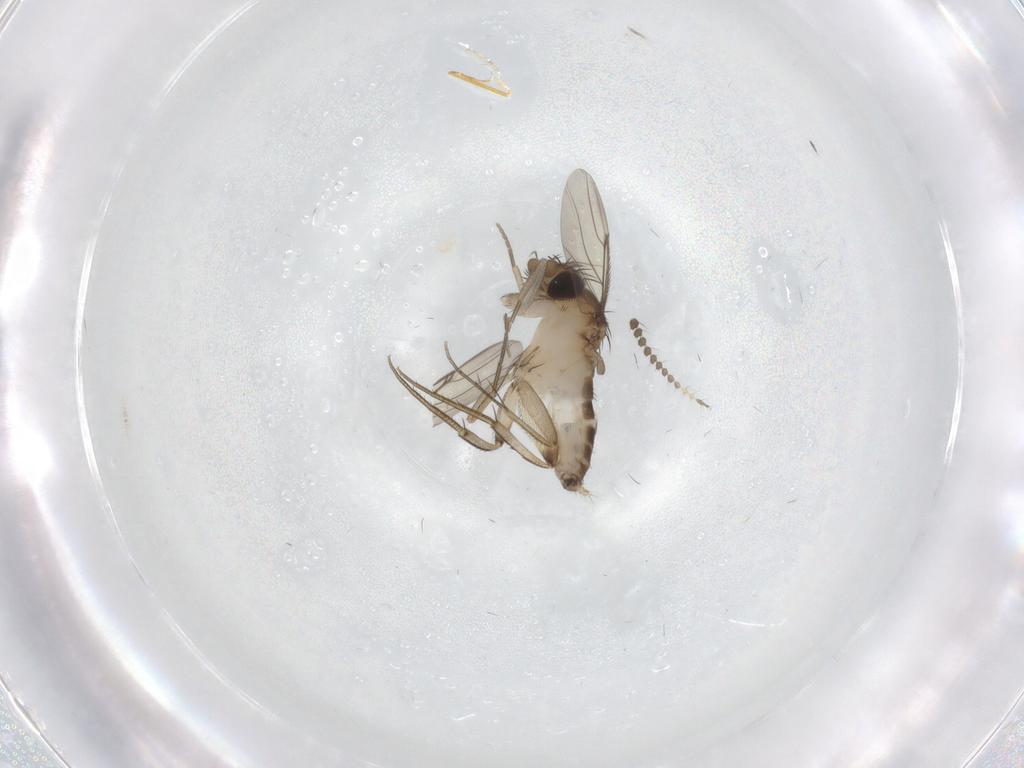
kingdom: Animalia
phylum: Arthropoda
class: Insecta
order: Diptera
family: Phoridae
